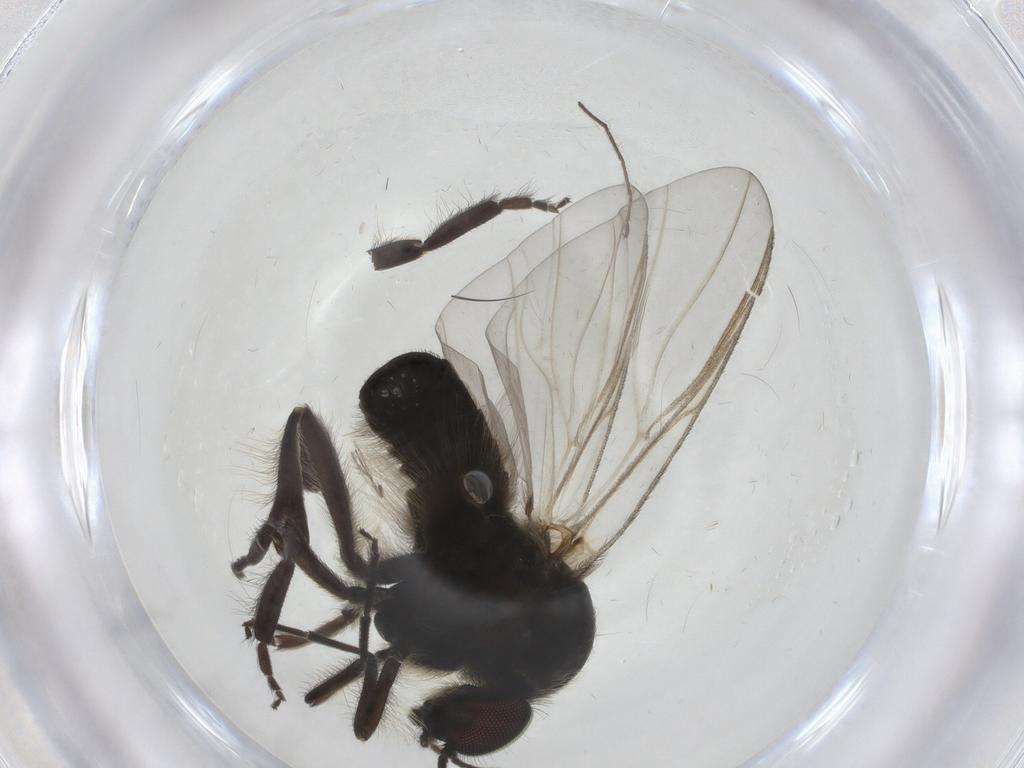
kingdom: Animalia
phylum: Arthropoda
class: Insecta
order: Diptera
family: Simuliidae
